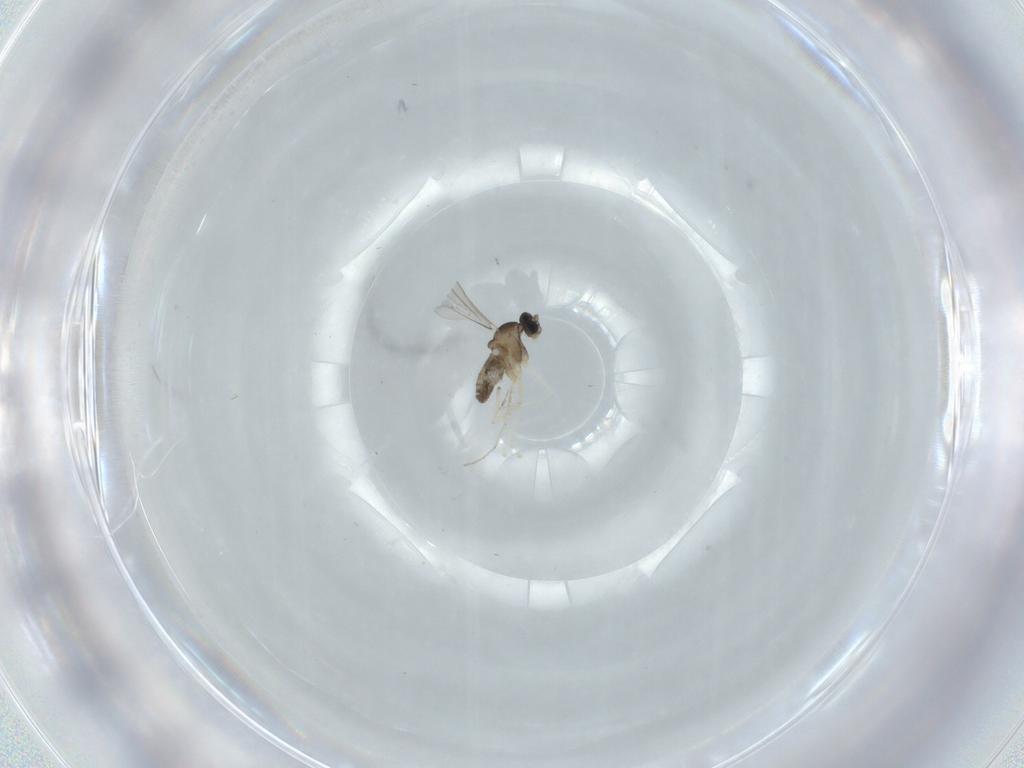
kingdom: Animalia
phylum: Arthropoda
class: Insecta
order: Diptera
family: Cecidomyiidae
